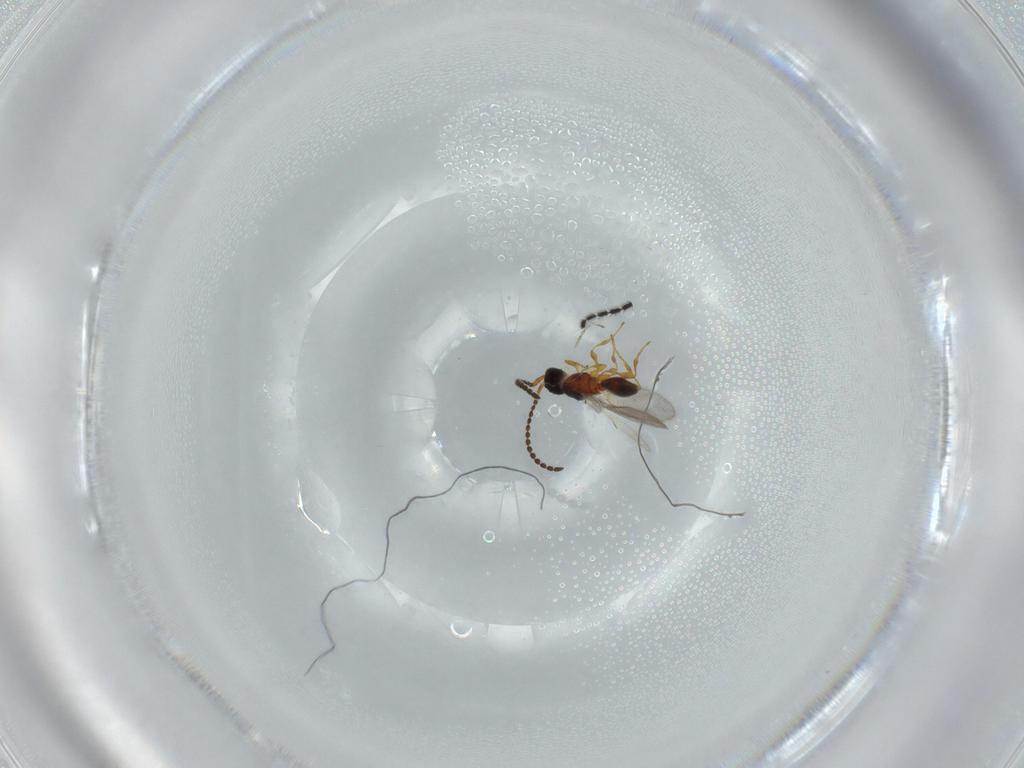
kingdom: Animalia
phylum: Arthropoda
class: Insecta
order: Hymenoptera
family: Diapriidae
